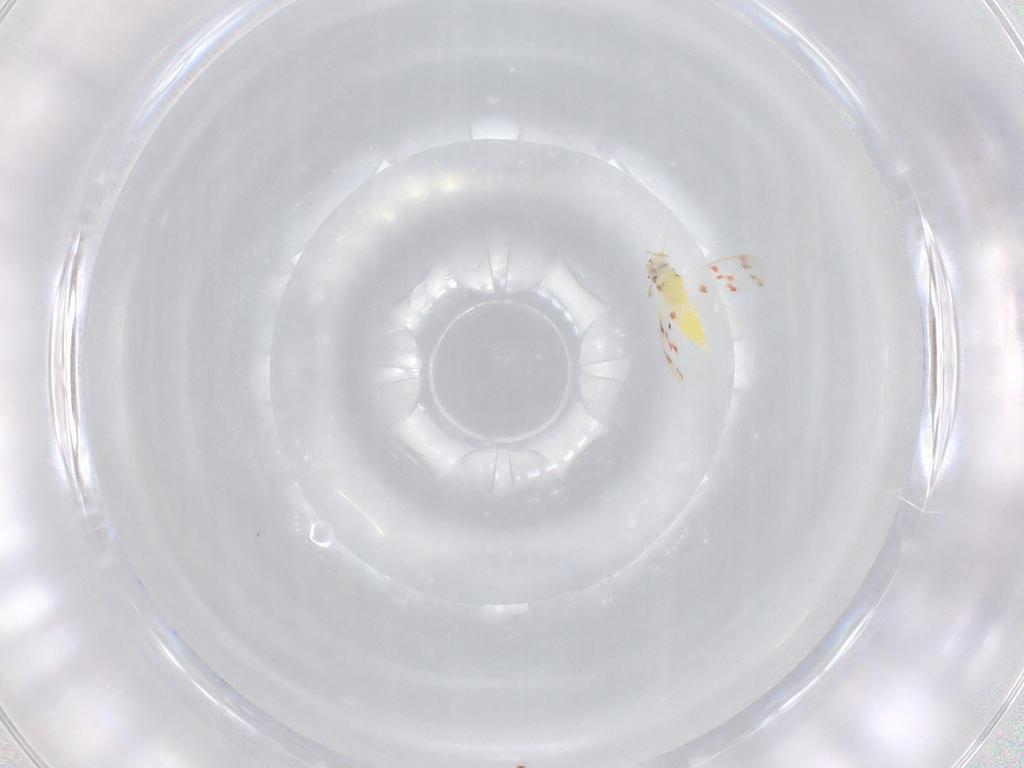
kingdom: Animalia
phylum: Arthropoda
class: Insecta
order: Hemiptera
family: Aleyrodidae
